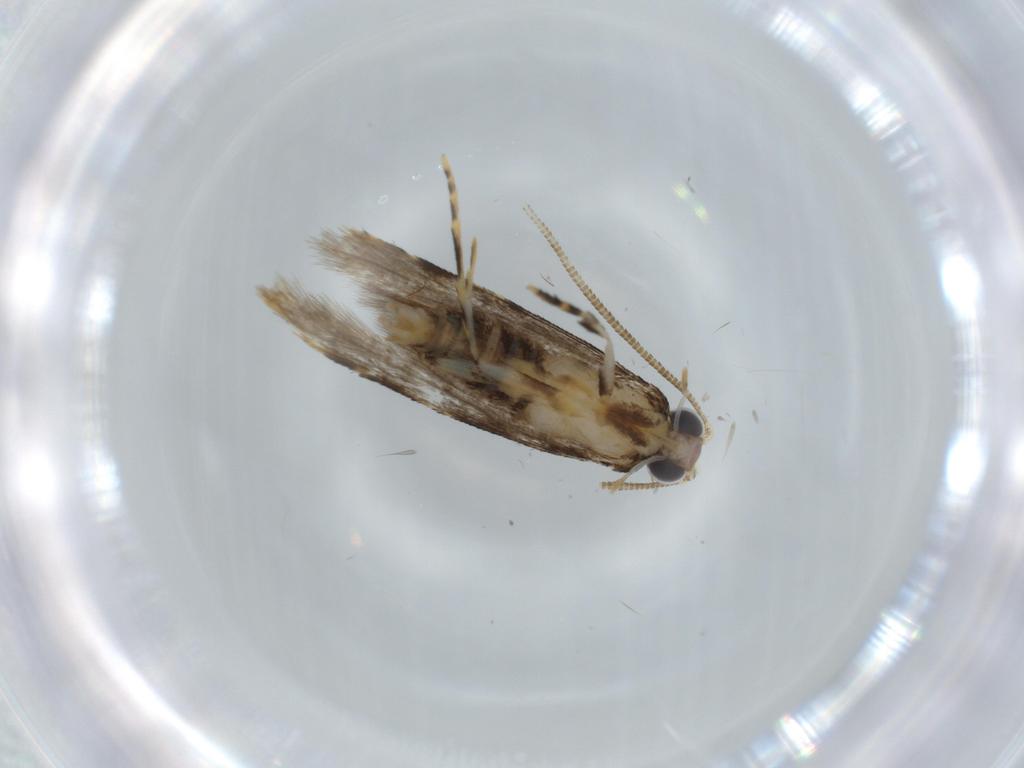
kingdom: Animalia
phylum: Arthropoda
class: Insecta
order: Lepidoptera
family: Tineidae
